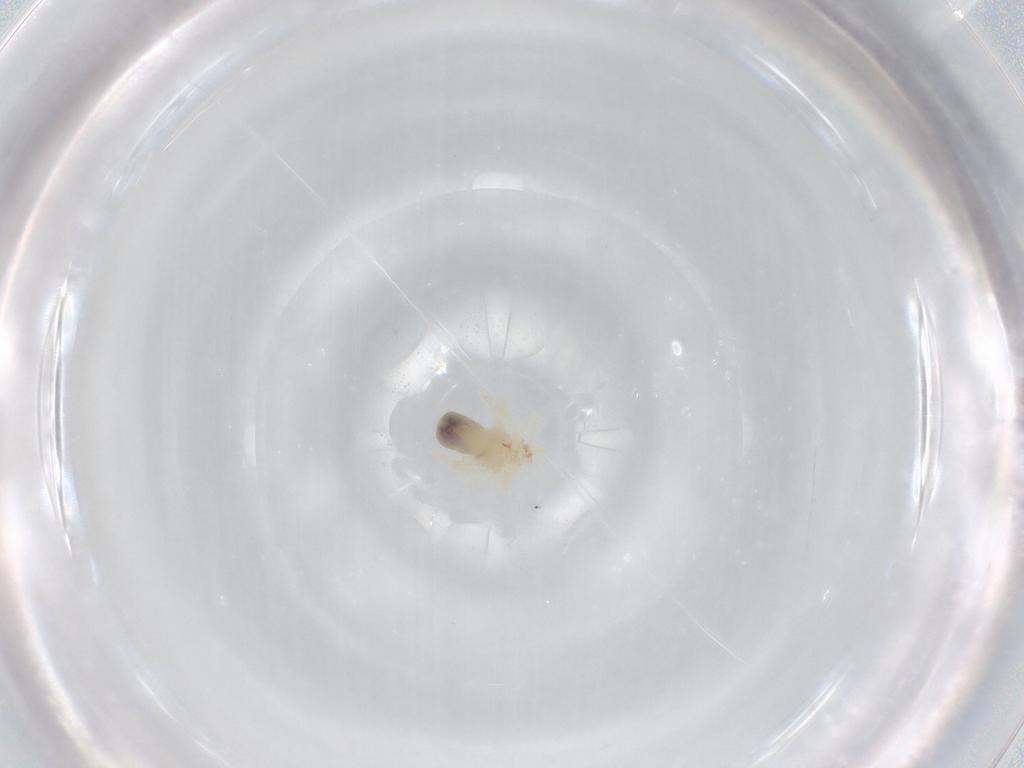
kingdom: Animalia
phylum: Arthropoda
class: Arachnida
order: Trombidiformes
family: Anystidae
